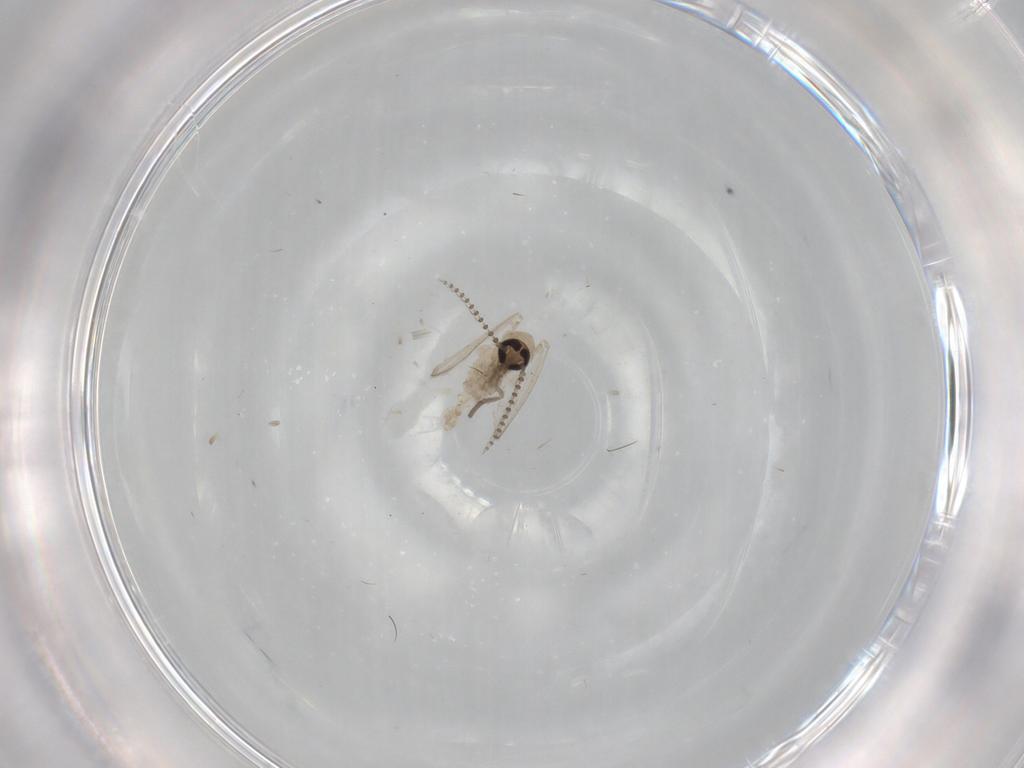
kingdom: Animalia
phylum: Arthropoda
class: Insecta
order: Diptera
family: Psychodidae
